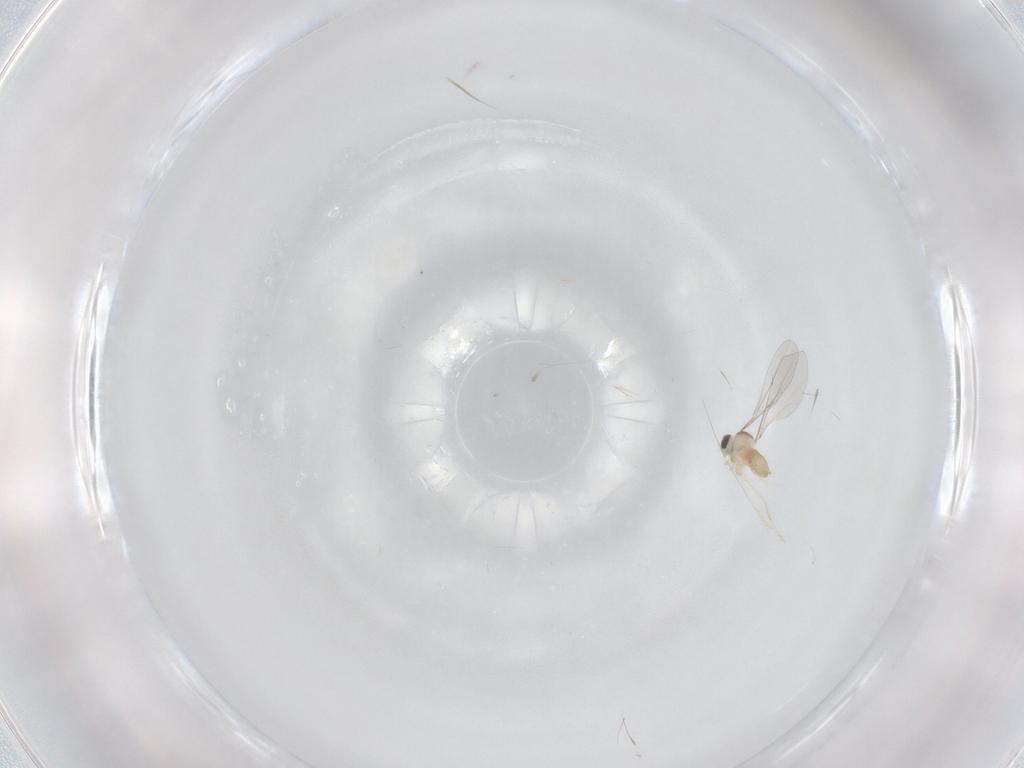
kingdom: Animalia
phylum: Arthropoda
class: Insecta
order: Diptera
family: Cecidomyiidae
